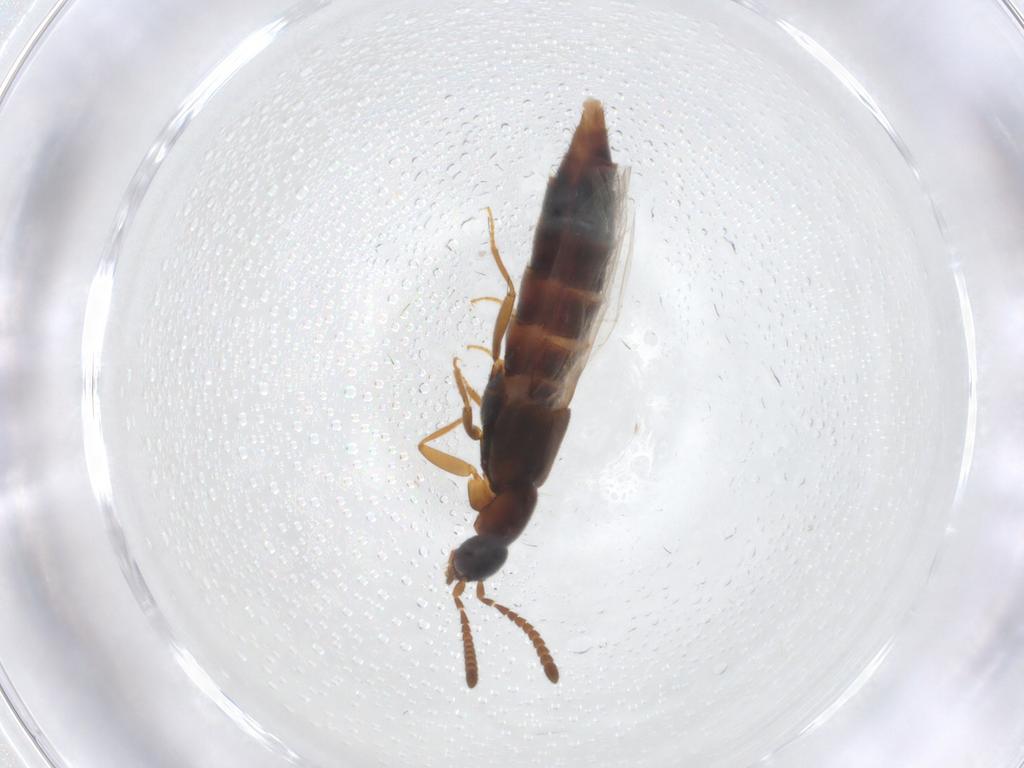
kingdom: Animalia
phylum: Arthropoda
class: Insecta
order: Coleoptera
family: Staphylinidae
